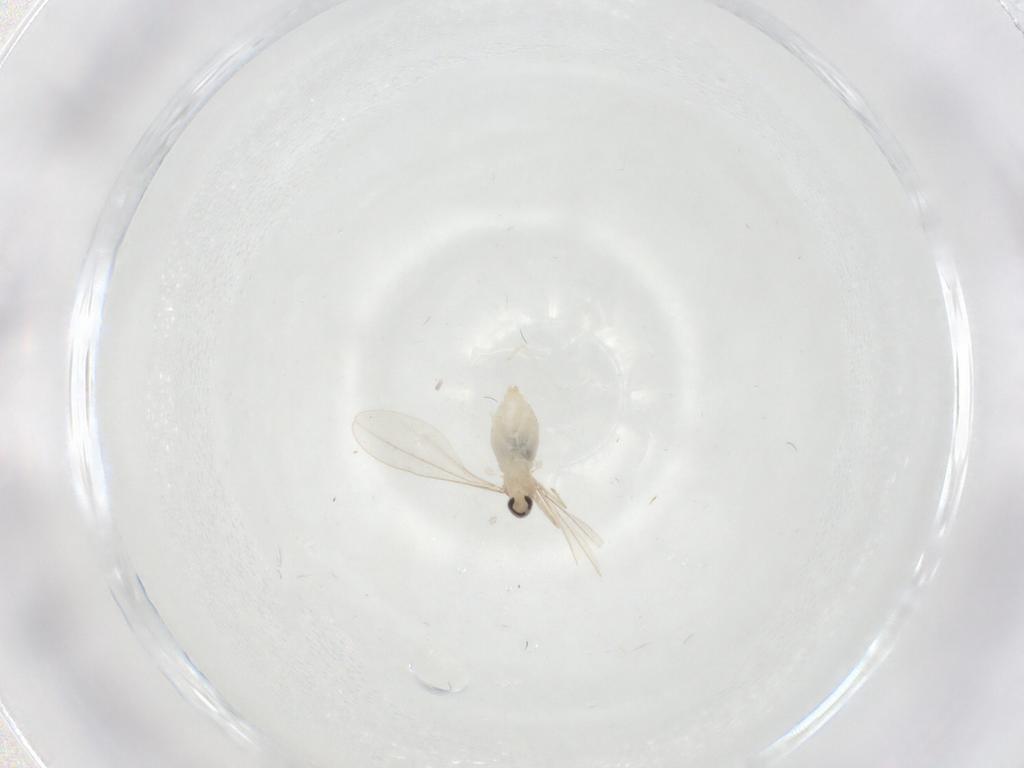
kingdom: Animalia
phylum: Arthropoda
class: Insecta
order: Diptera
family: Cecidomyiidae
